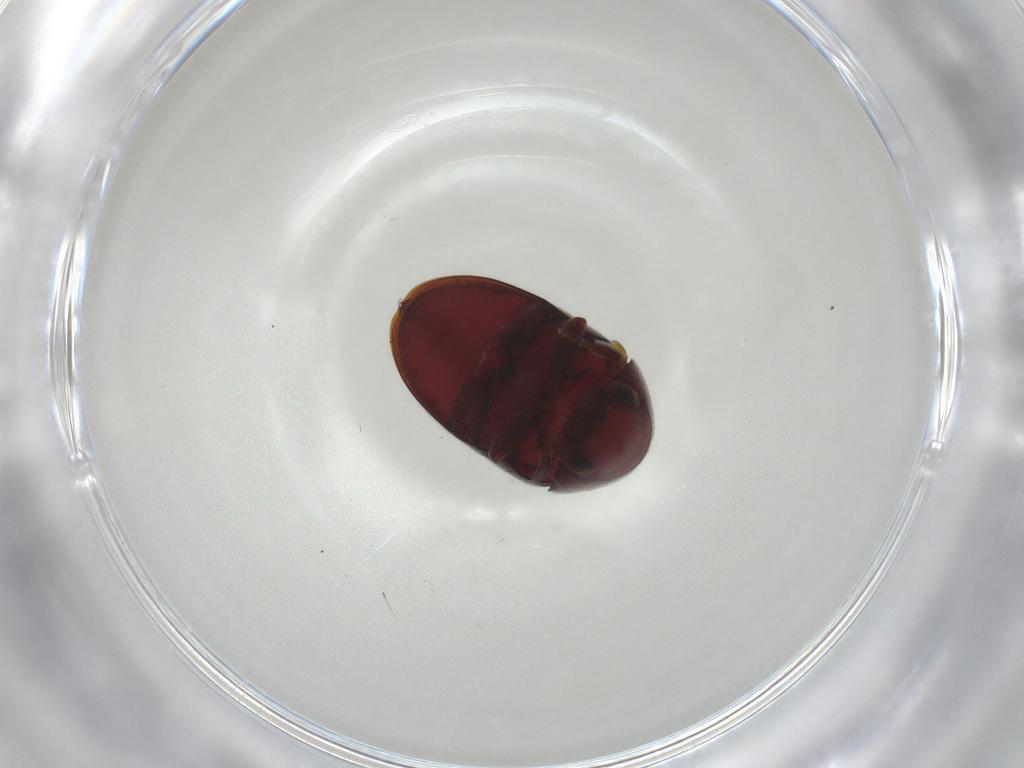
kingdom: Animalia
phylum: Arthropoda
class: Insecta
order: Coleoptera
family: Anobiidae
